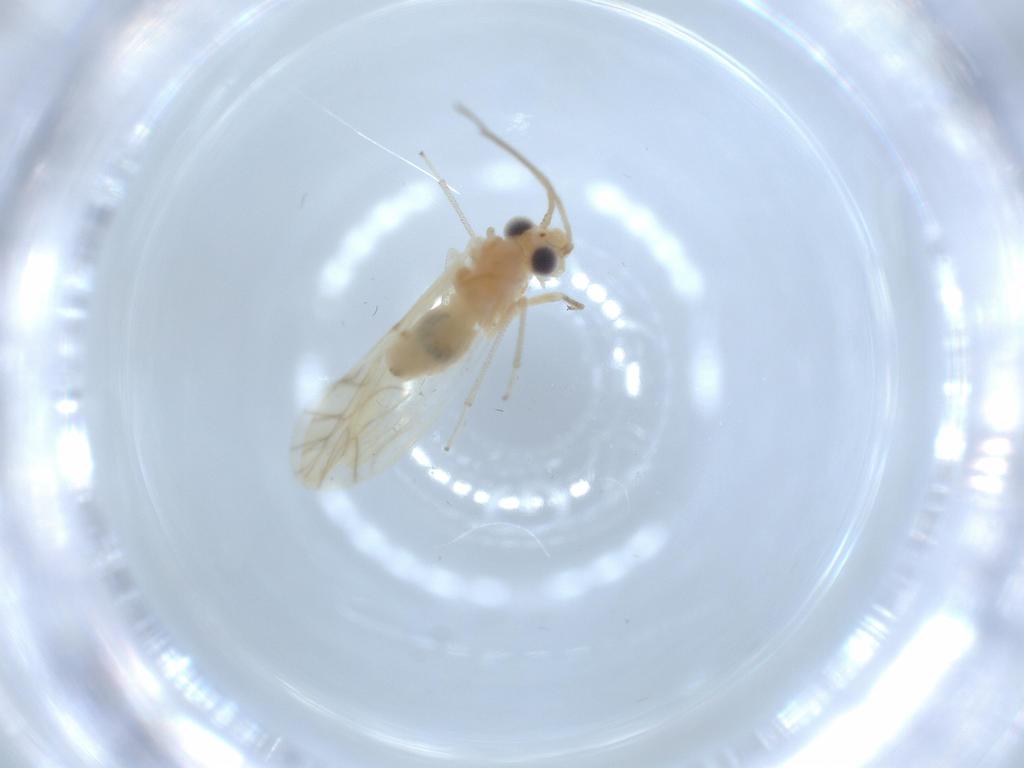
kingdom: Animalia
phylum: Arthropoda
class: Insecta
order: Psocodea
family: Caeciliusidae
